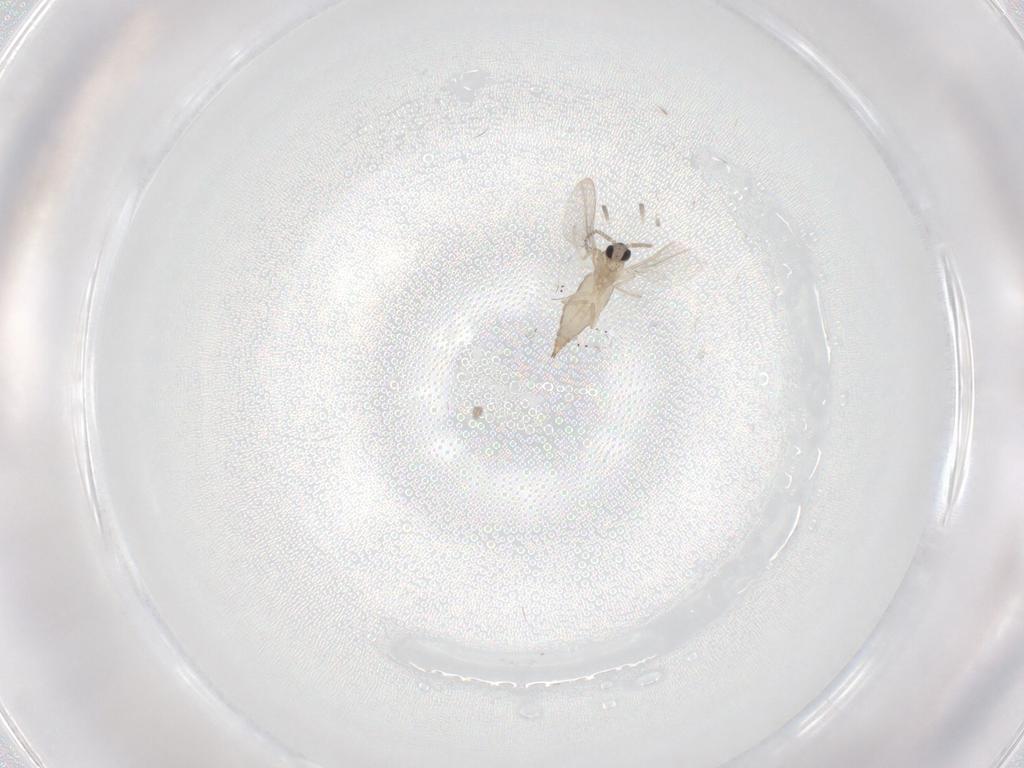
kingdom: Animalia
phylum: Arthropoda
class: Insecta
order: Diptera
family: Cecidomyiidae
